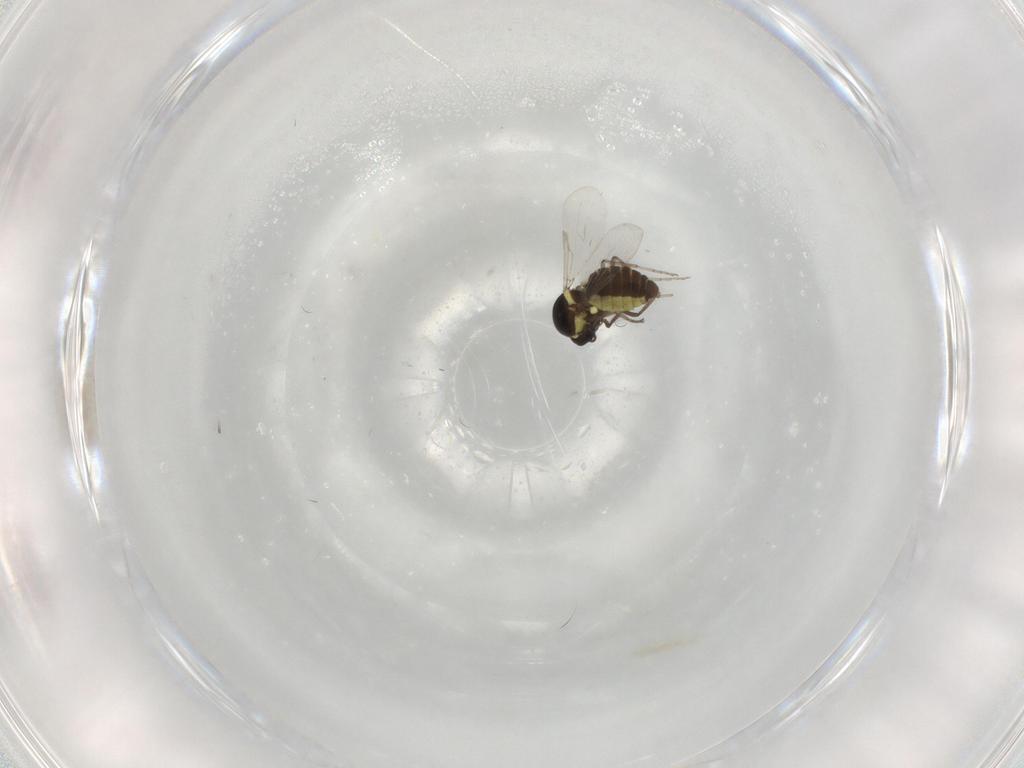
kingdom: Animalia
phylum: Arthropoda
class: Insecta
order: Diptera
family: Ceratopogonidae
